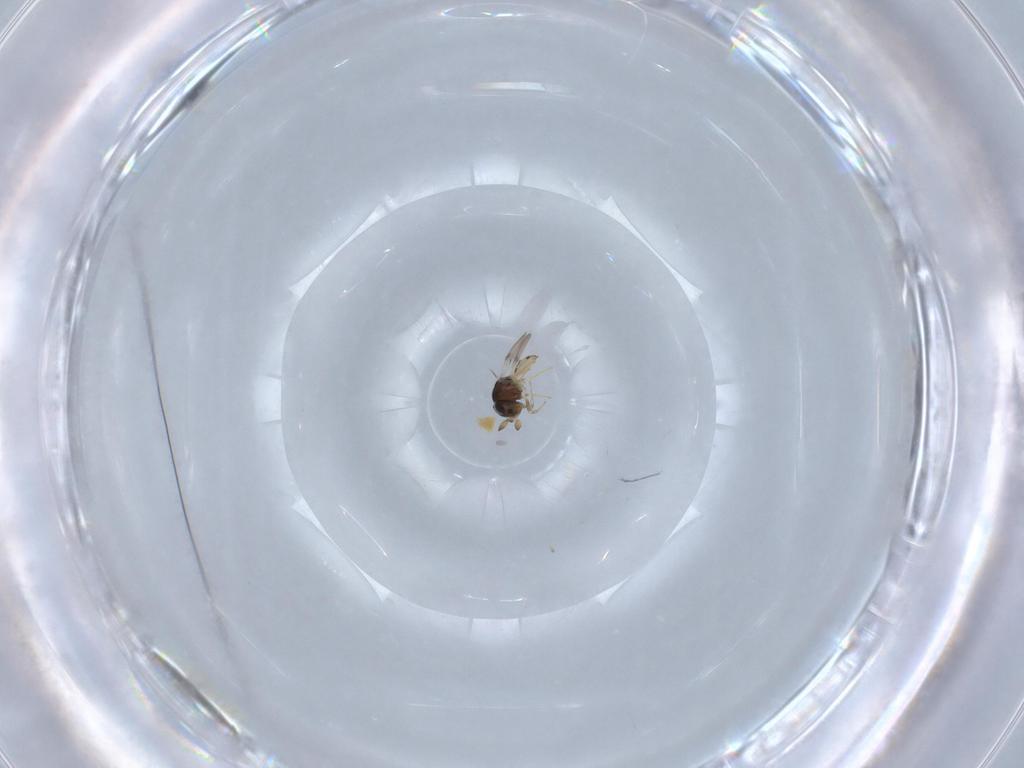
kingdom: Animalia
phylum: Arthropoda
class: Insecta
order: Hymenoptera
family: Scelionidae
